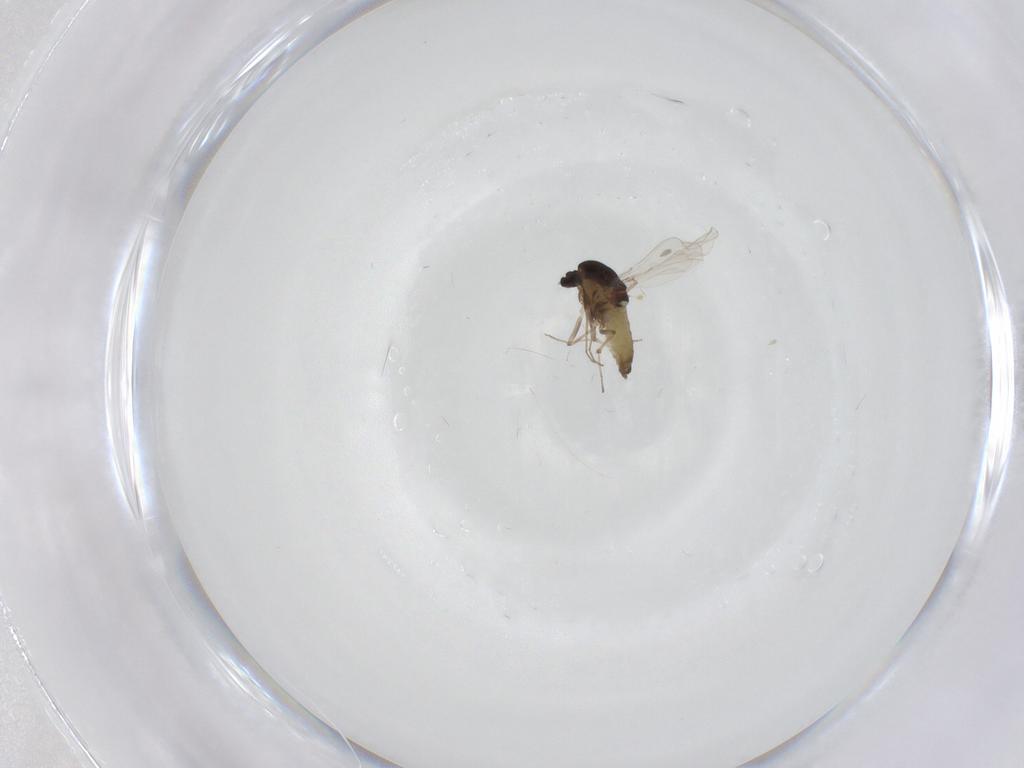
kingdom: Animalia
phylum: Arthropoda
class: Insecta
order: Diptera
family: Chironomidae
